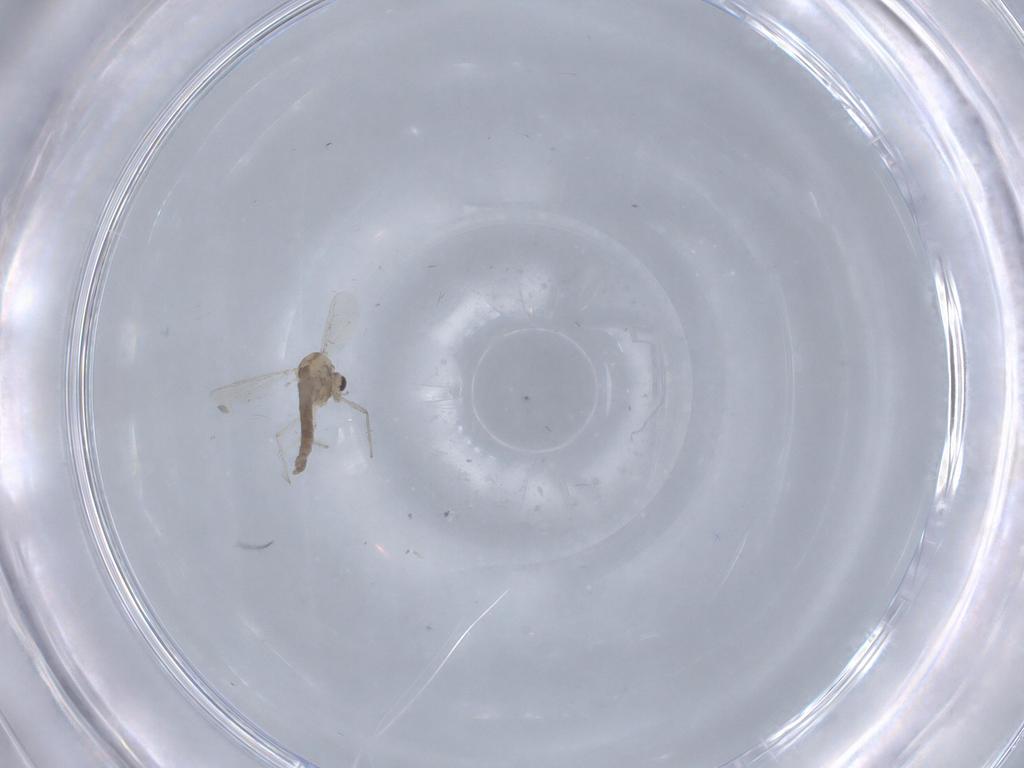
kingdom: Animalia
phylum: Arthropoda
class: Insecta
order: Diptera
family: Chironomidae
